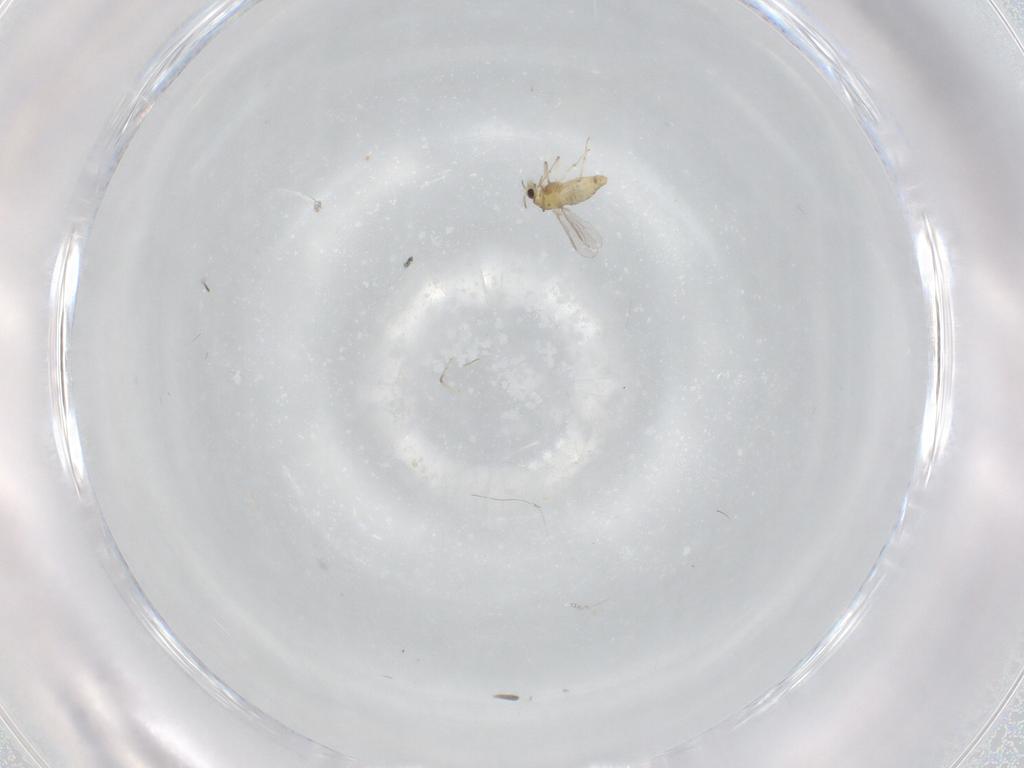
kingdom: Animalia
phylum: Arthropoda
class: Insecta
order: Diptera
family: Chironomidae
